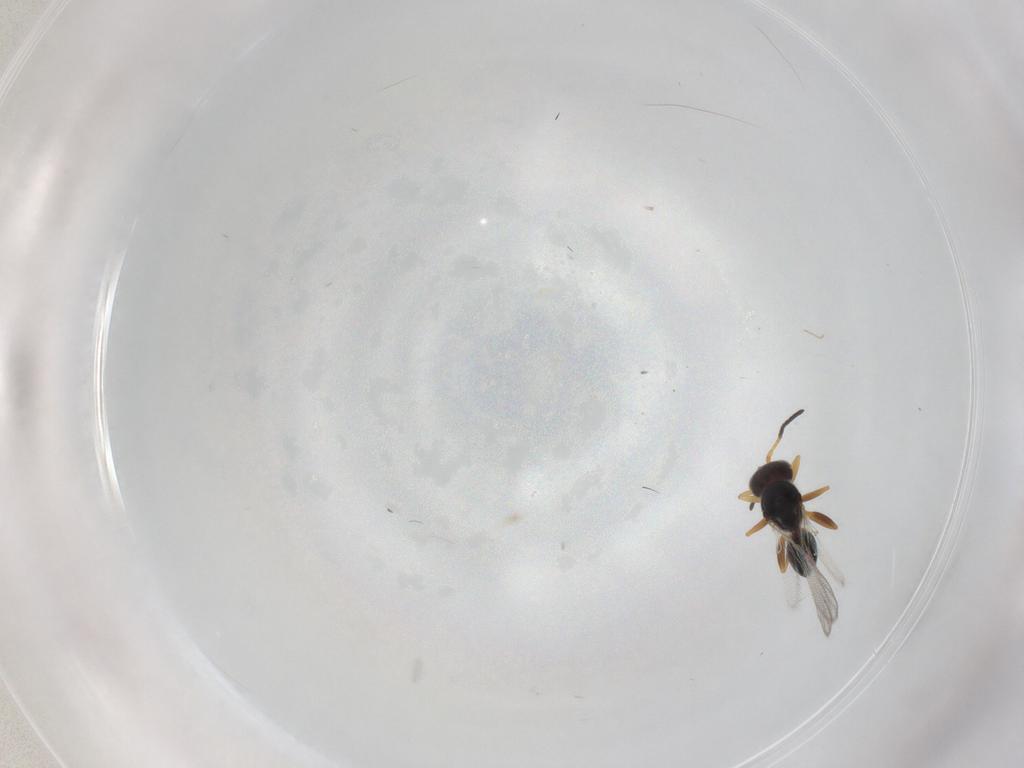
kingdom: Animalia
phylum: Arthropoda
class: Insecta
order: Hymenoptera
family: Figitidae
